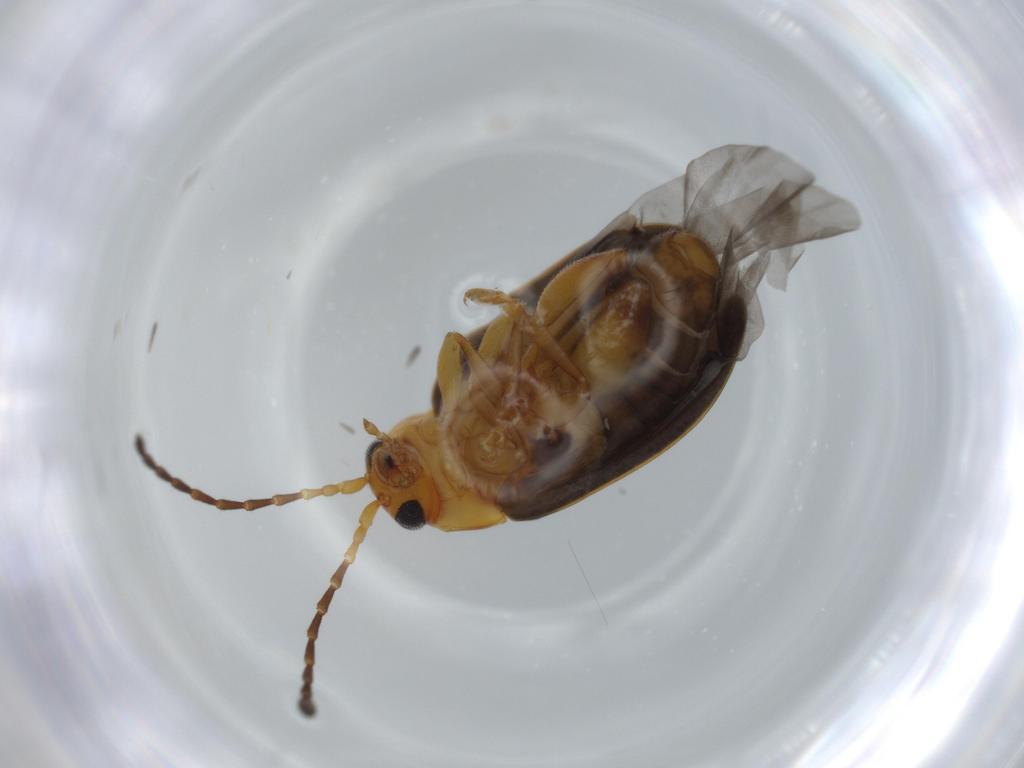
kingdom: Animalia
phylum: Arthropoda
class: Insecta
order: Coleoptera
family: Chrysomelidae
